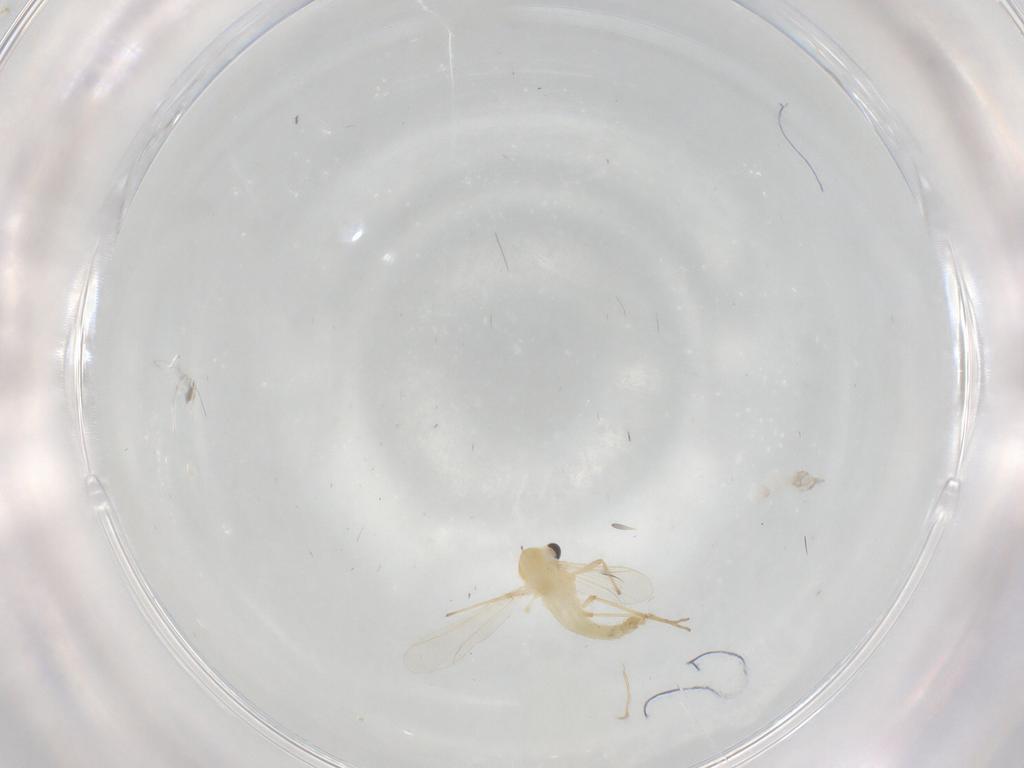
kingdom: Animalia
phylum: Arthropoda
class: Insecta
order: Diptera
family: Chironomidae
